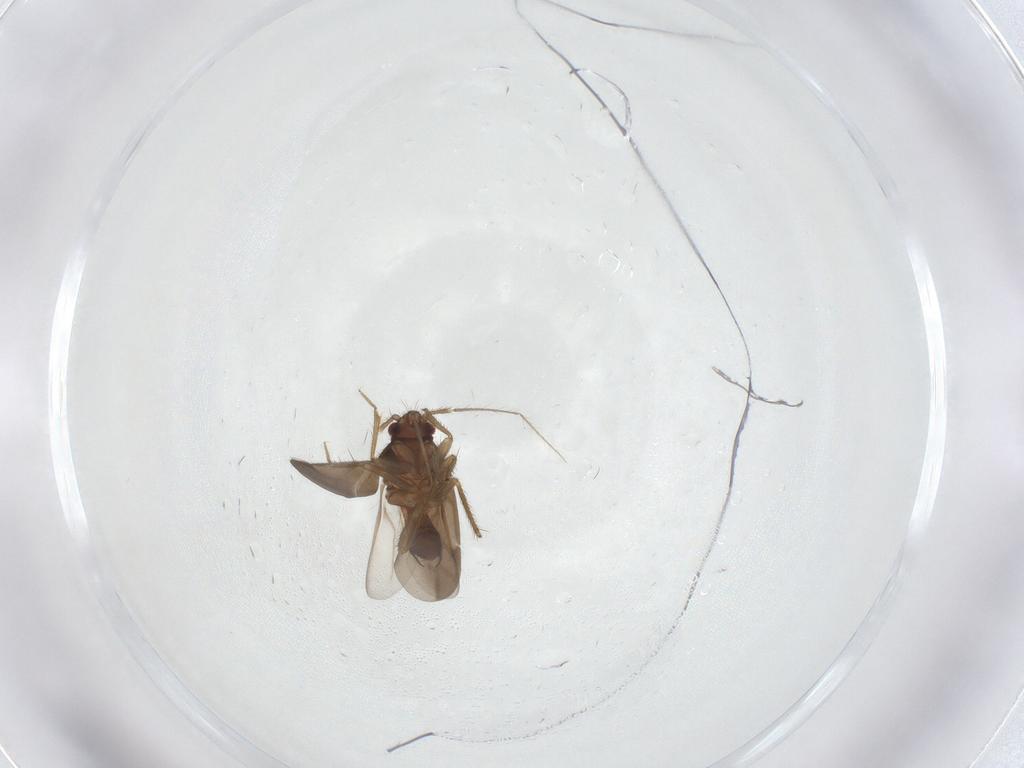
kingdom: Animalia
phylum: Arthropoda
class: Insecta
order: Hemiptera
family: Ceratocombidae
